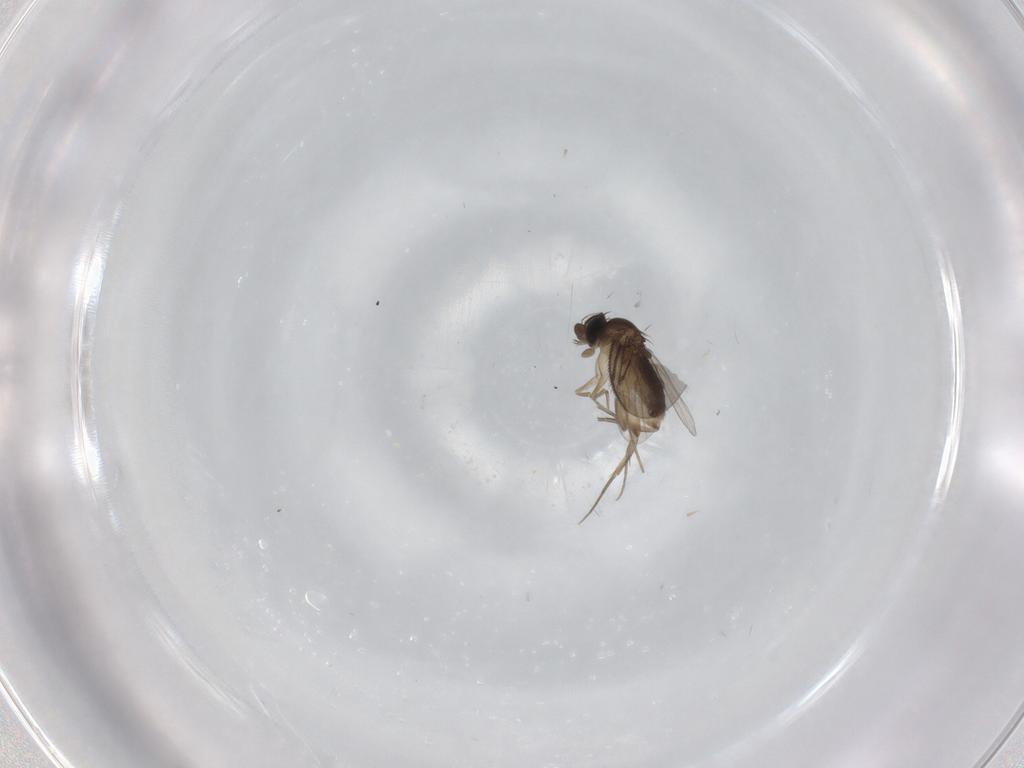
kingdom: Animalia
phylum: Arthropoda
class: Insecta
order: Diptera
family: Phoridae
